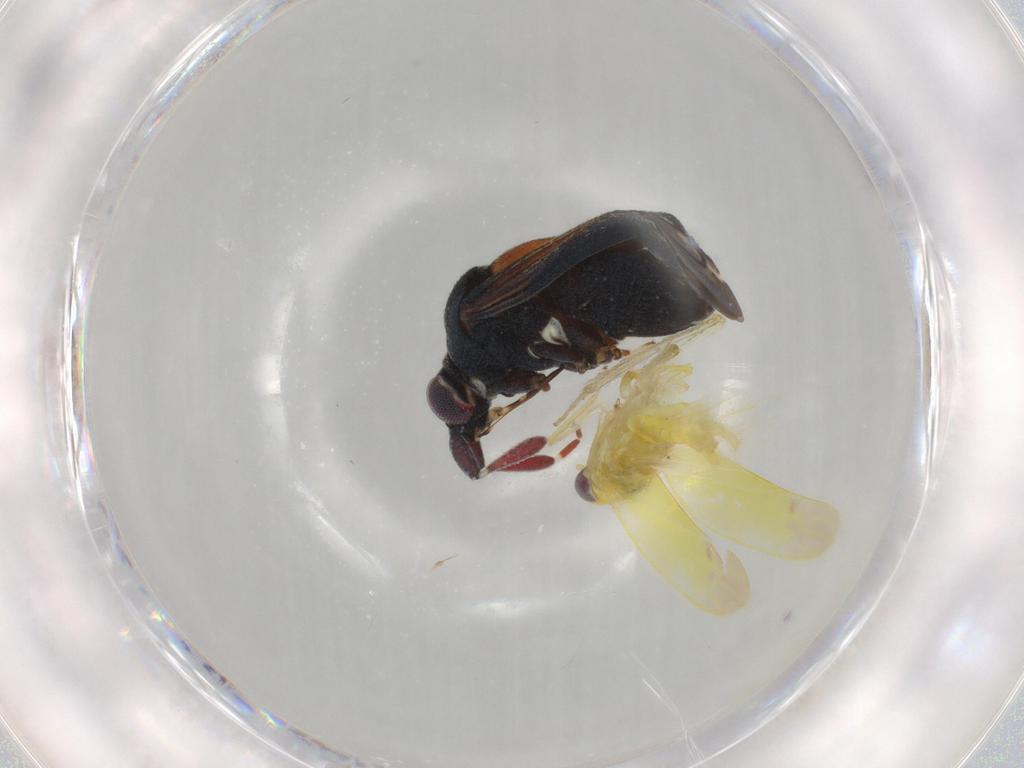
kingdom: Animalia
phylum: Arthropoda
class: Insecta
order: Hemiptera
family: Miridae
